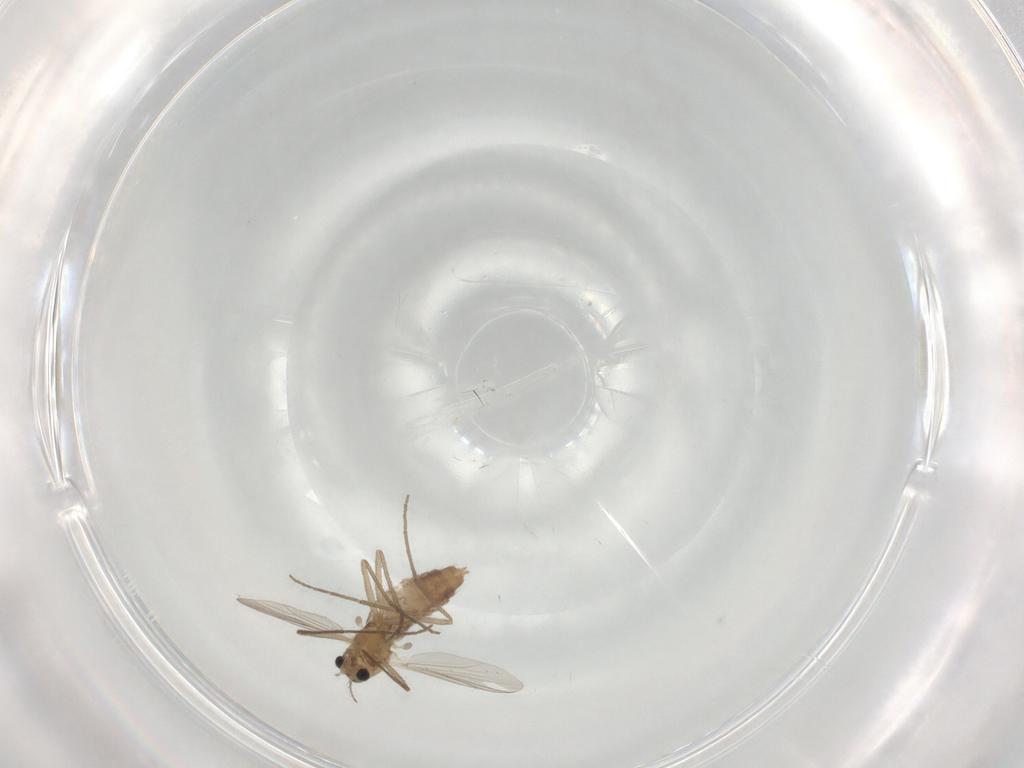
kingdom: Animalia
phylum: Arthropoda
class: Insecta
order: Diptera
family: Chironomidae
